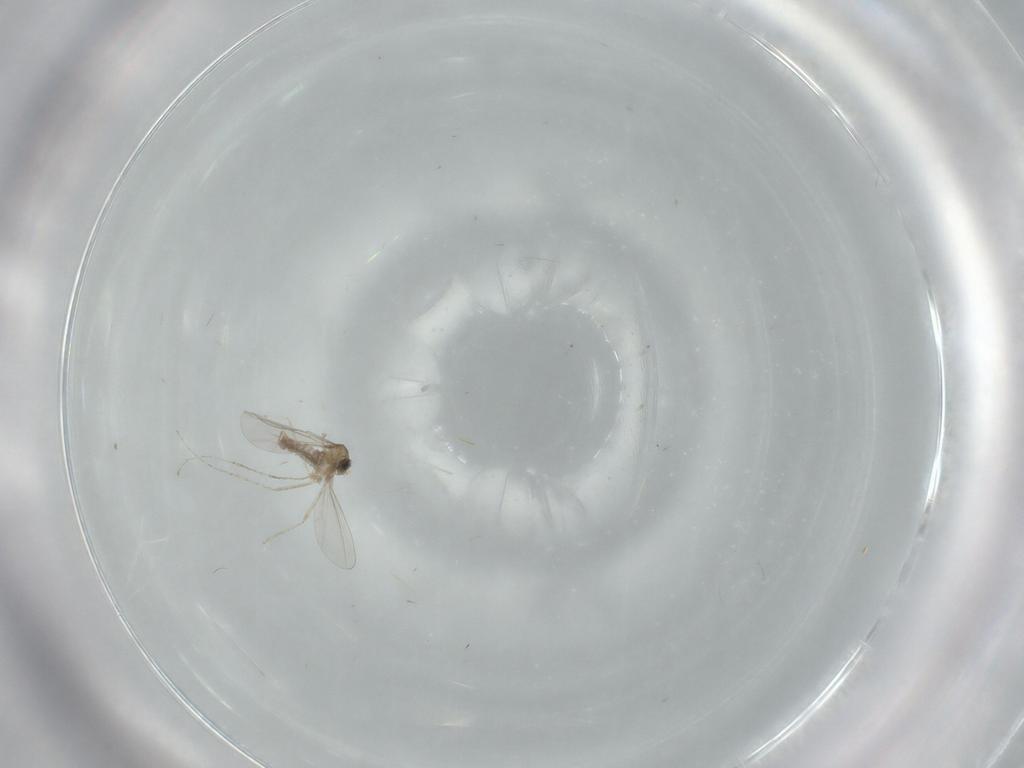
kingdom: Animalia
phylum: Arthropoda
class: Insecta
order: Diptera
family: Cecidomyiidae
